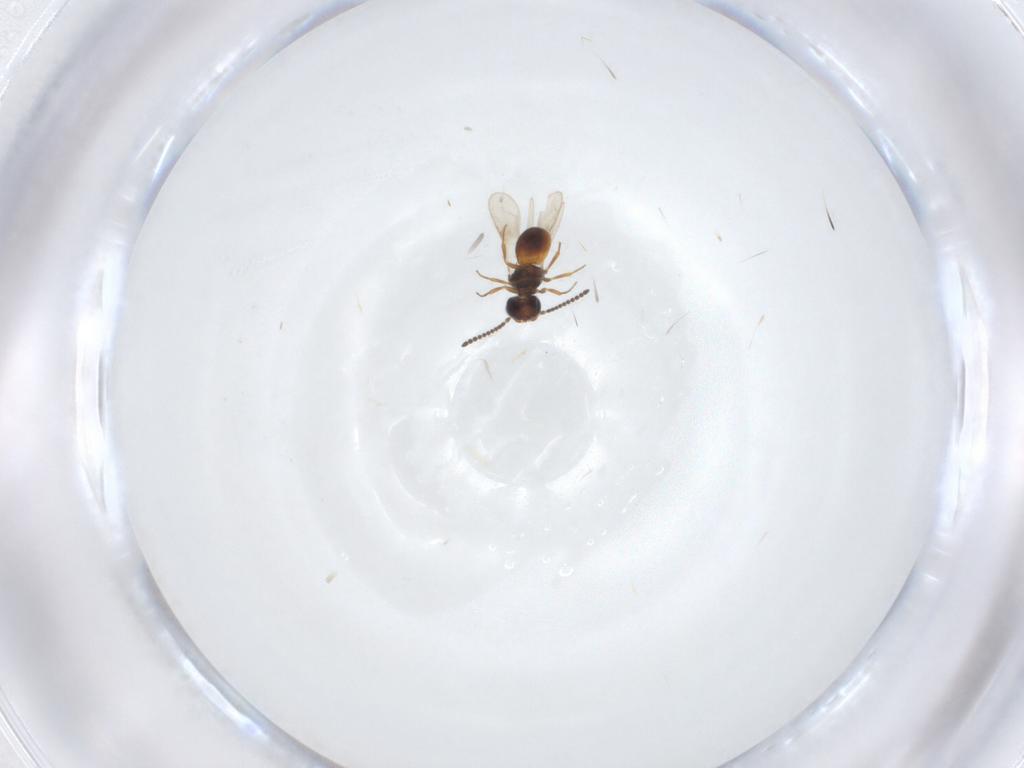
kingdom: Animalia
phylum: Arthropoda
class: Insecta
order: Hymenoptera
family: Scelionidae
